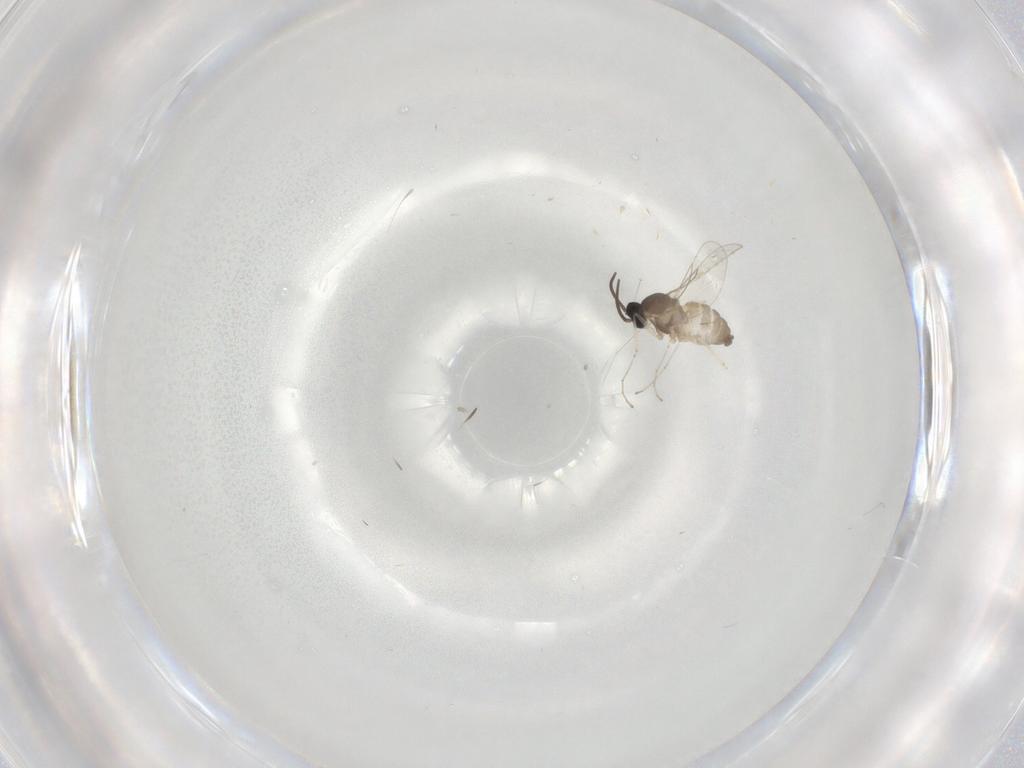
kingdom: Animalia
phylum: Arthropoda
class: Insecta
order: Diptera
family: Cecidomyiidae
